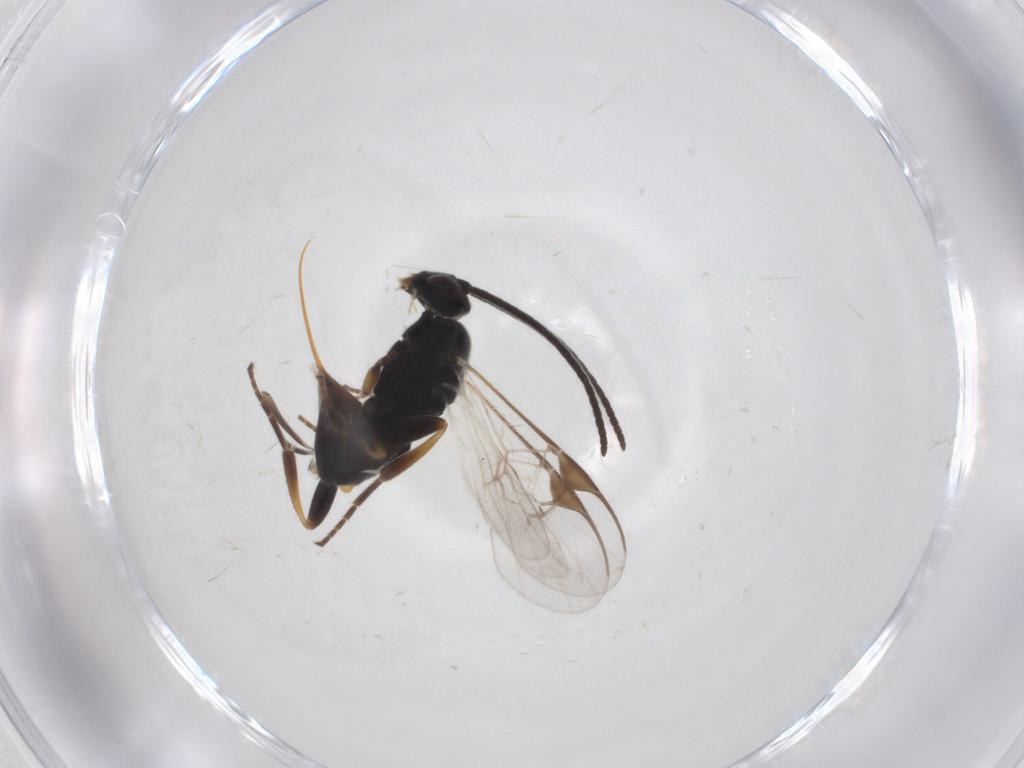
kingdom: Animalia
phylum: Arthropoda
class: Insecta
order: Hymenoptera
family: Braconidae
